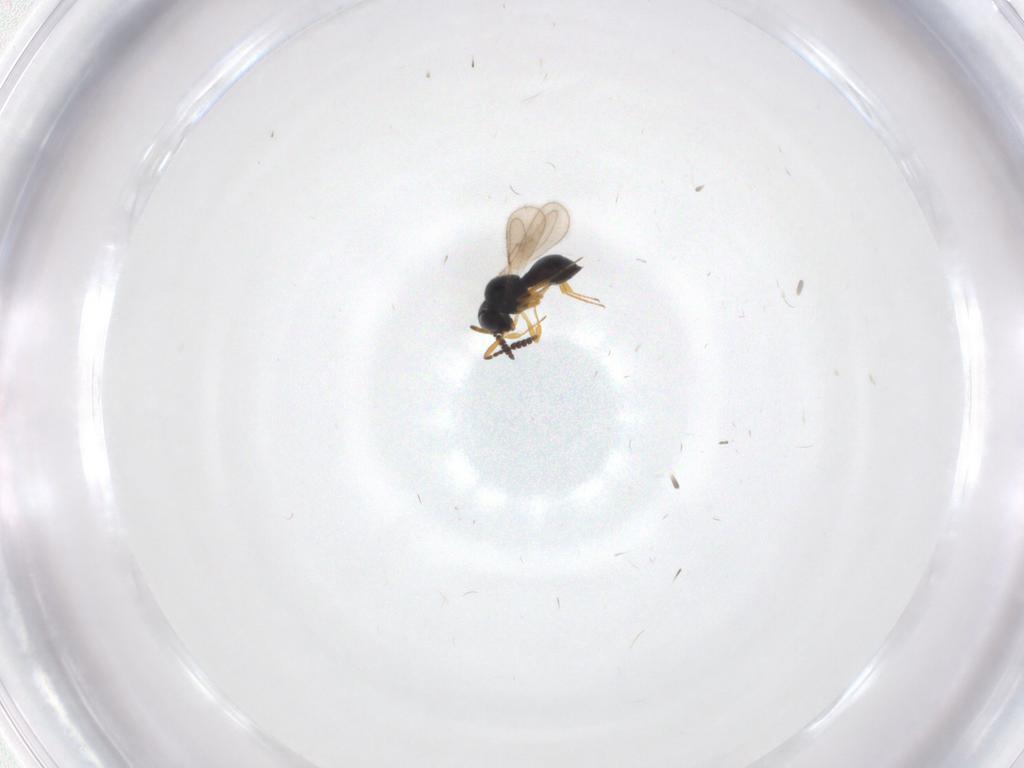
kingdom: Animalia
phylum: Arthropoda
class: Insecta
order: Hymenoptera
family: Scelionidae
